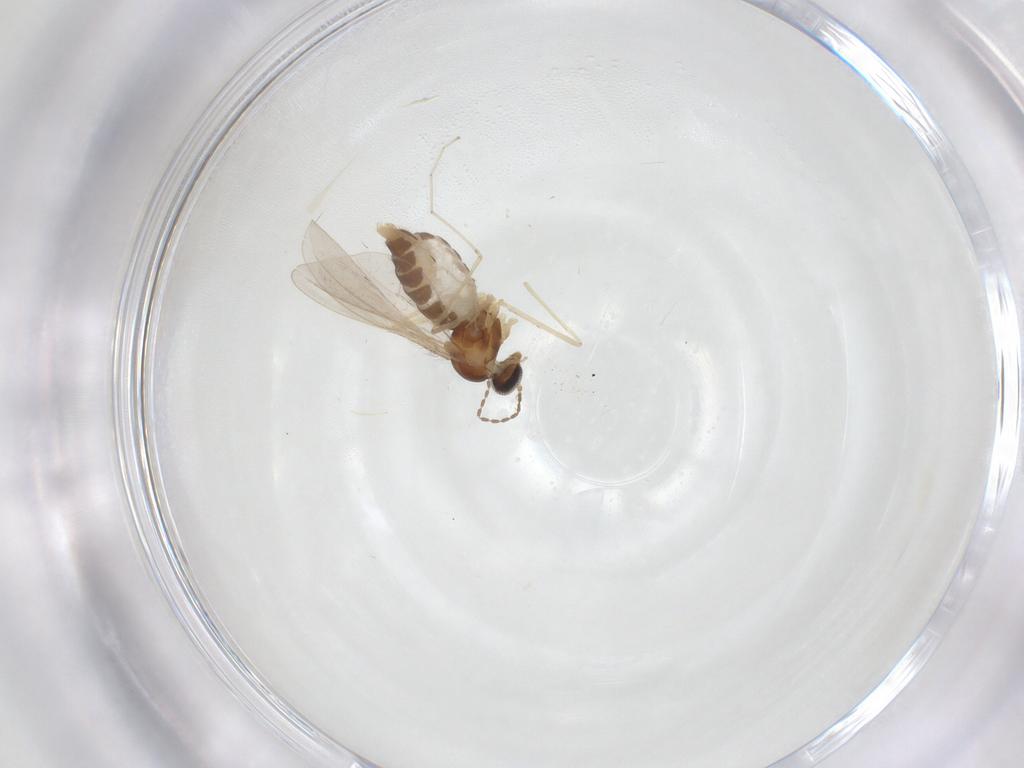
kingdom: Animalia
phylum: Arthropoda
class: Insecta
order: Diptera
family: Cecidomyiidae
